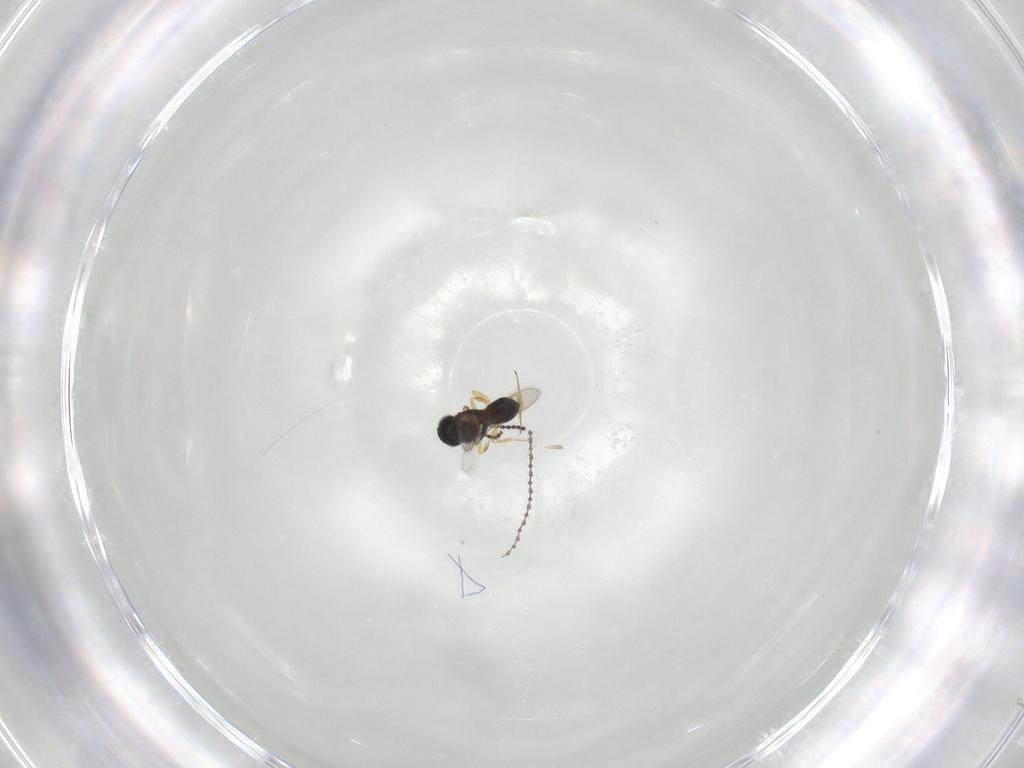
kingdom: Animalia
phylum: Arthropoda
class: Insecta
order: Hymenoptera
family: Scelionidae
